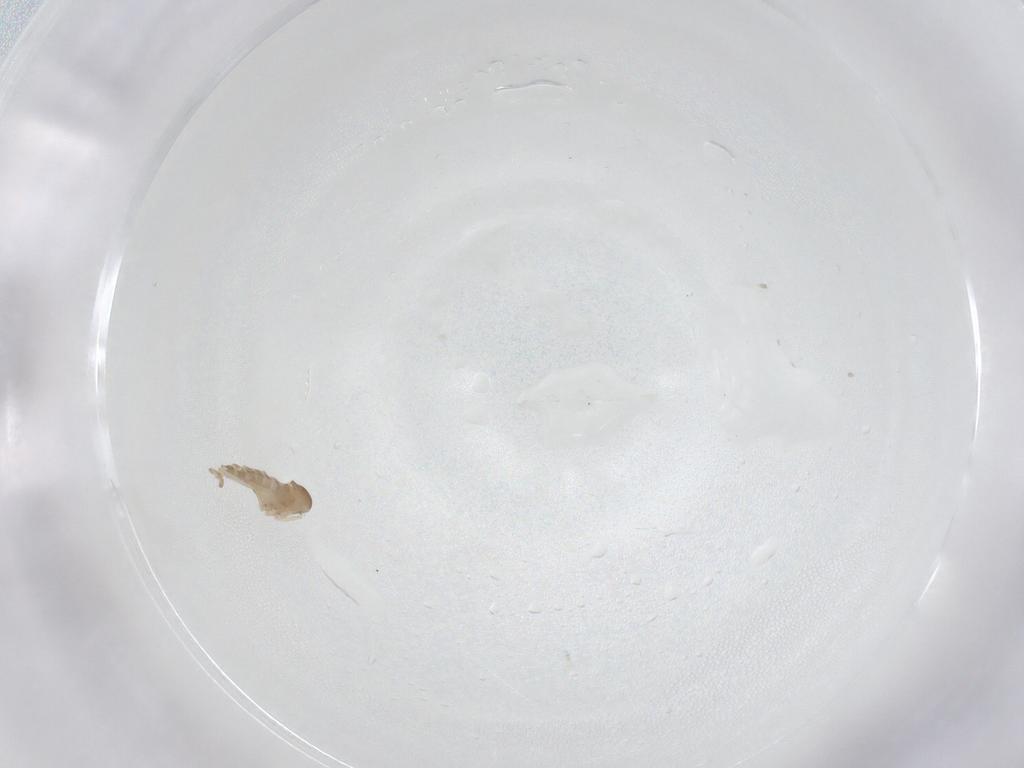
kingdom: Animalia
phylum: Arthropoda
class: Insecta
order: Diptera
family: Cecidomyiidae
